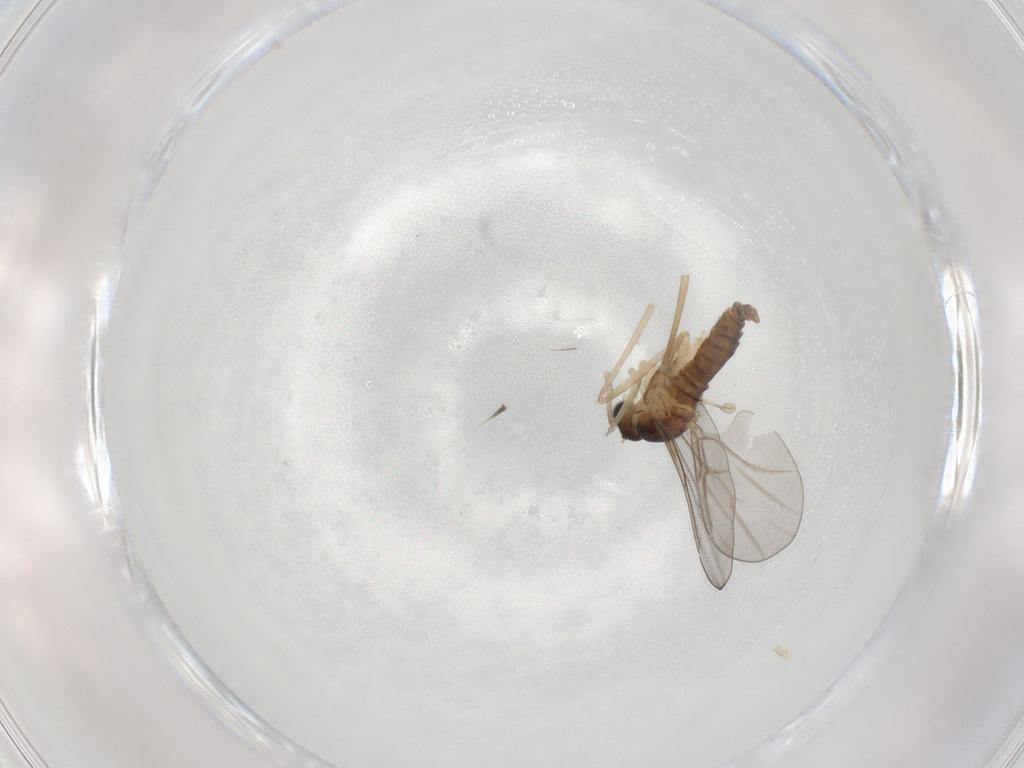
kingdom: Animalia
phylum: Arthropoda
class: Insecta
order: Diptera
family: Cecidomyiidae
